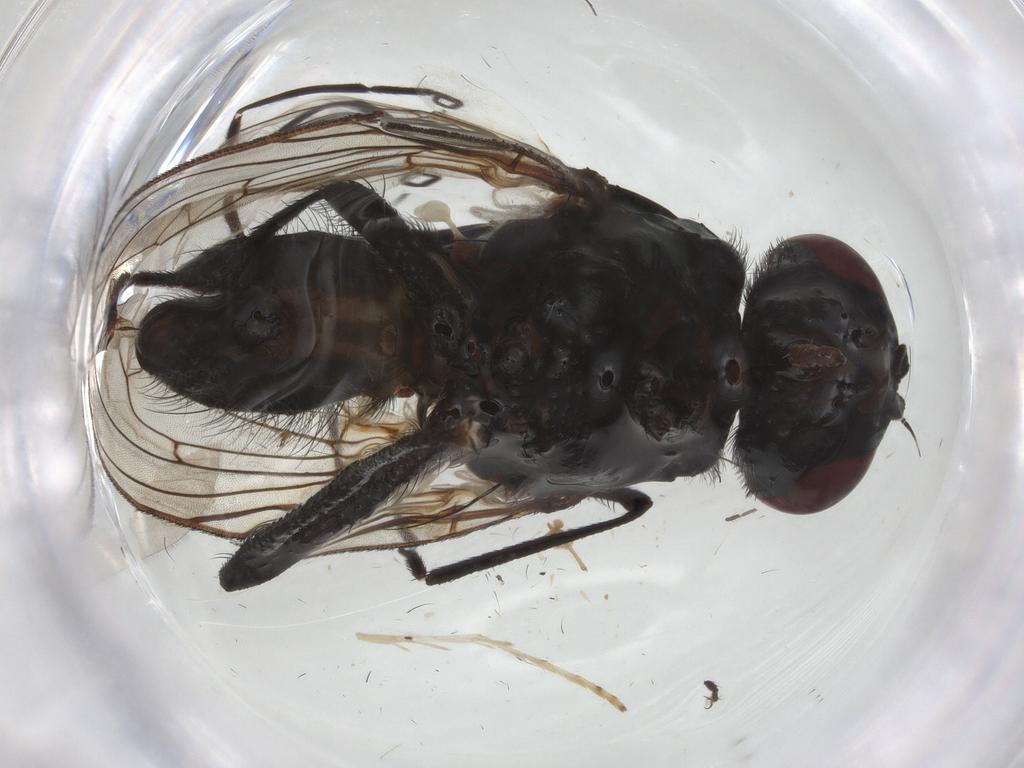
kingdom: Animalia
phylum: Arthropoda
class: Insecta
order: Diptera
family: Anthomyiidae
